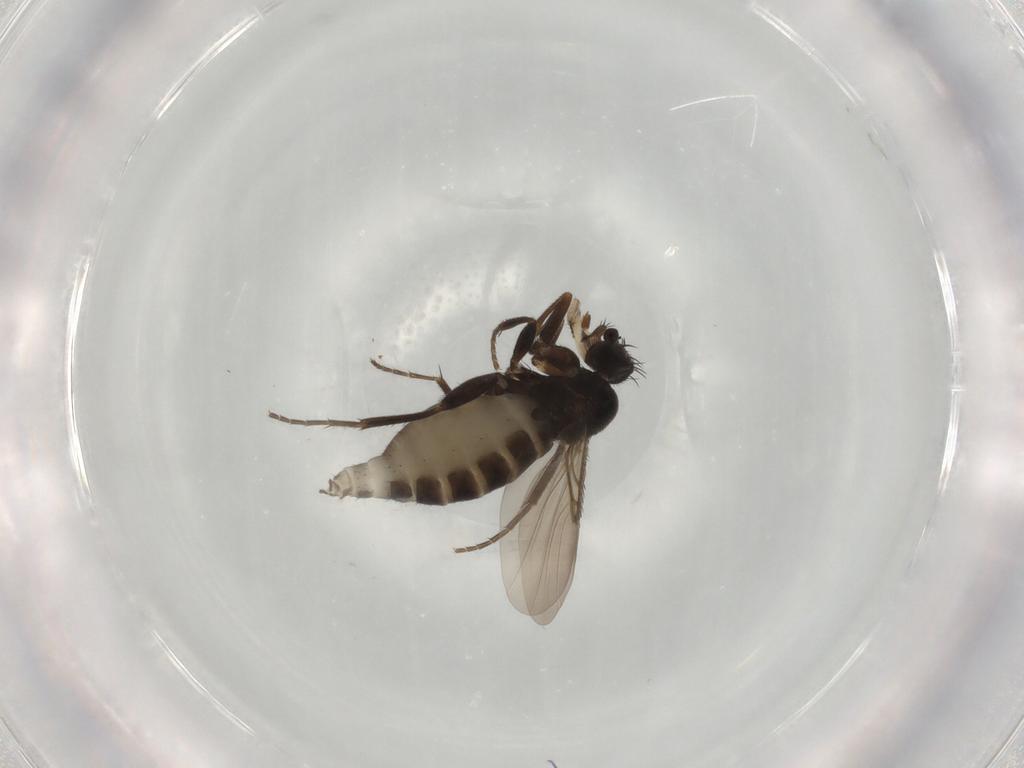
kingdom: Animalia
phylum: Arthropoda
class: Insecta
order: Diptera
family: Phoridae
